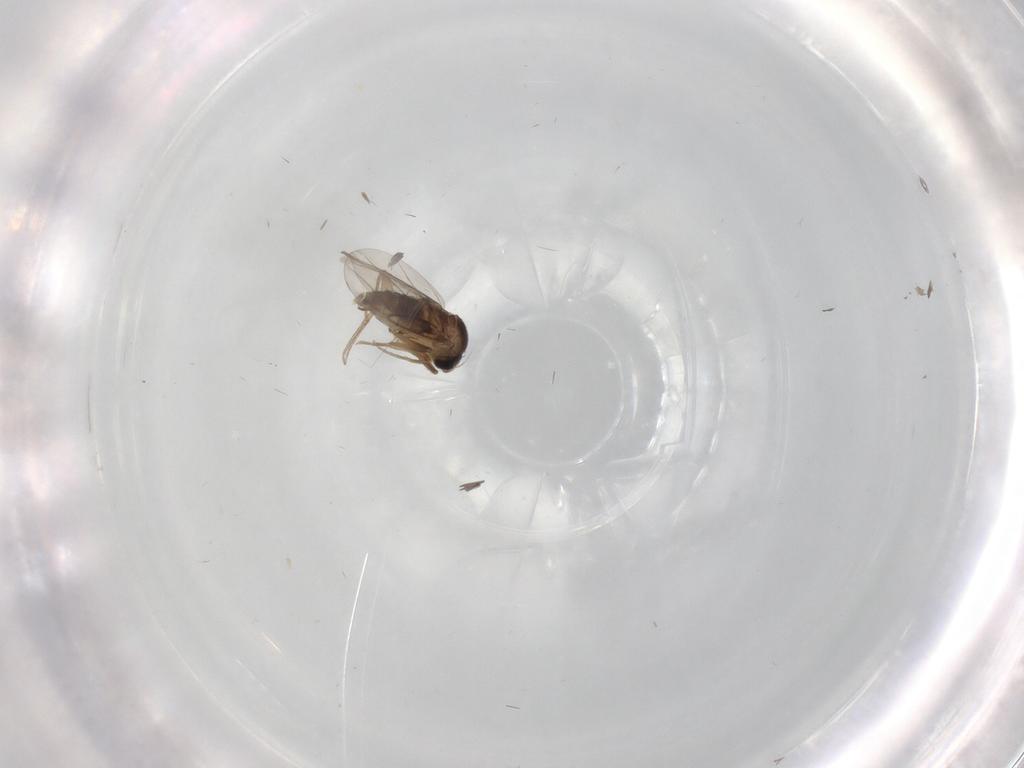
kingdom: Animalia
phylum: Arthropoda
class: Insecta
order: Diptera
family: Phoridae
